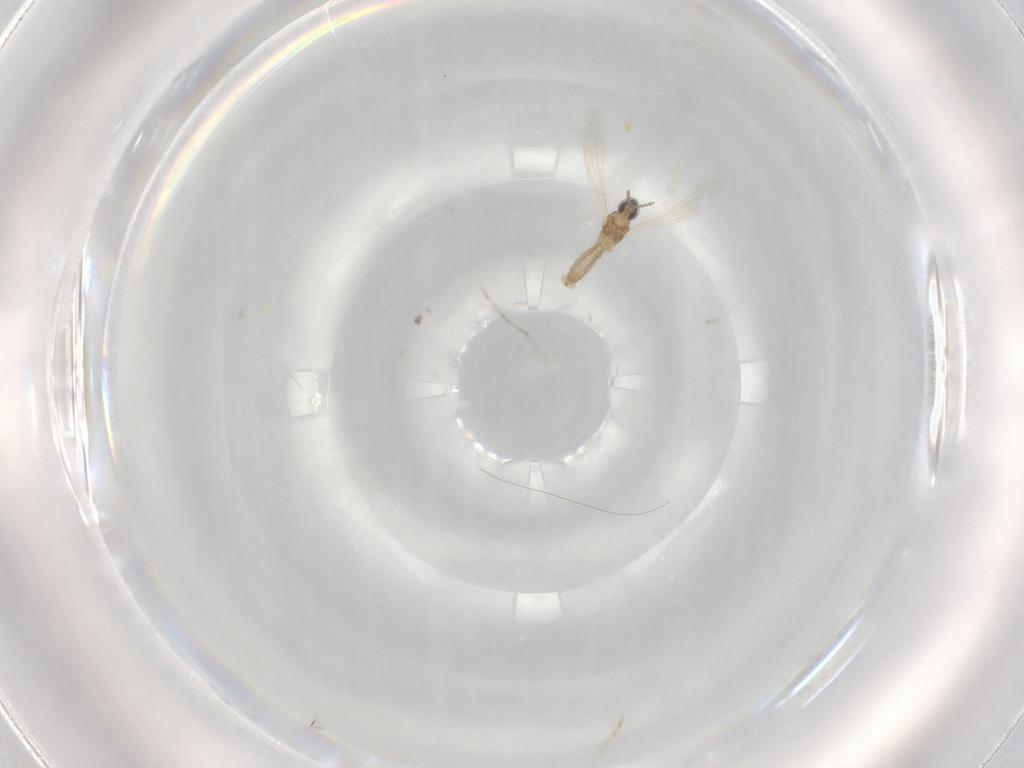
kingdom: Animalia
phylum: Arthropoda
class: Insecta
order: Diptera
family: Cecidomyiidae
